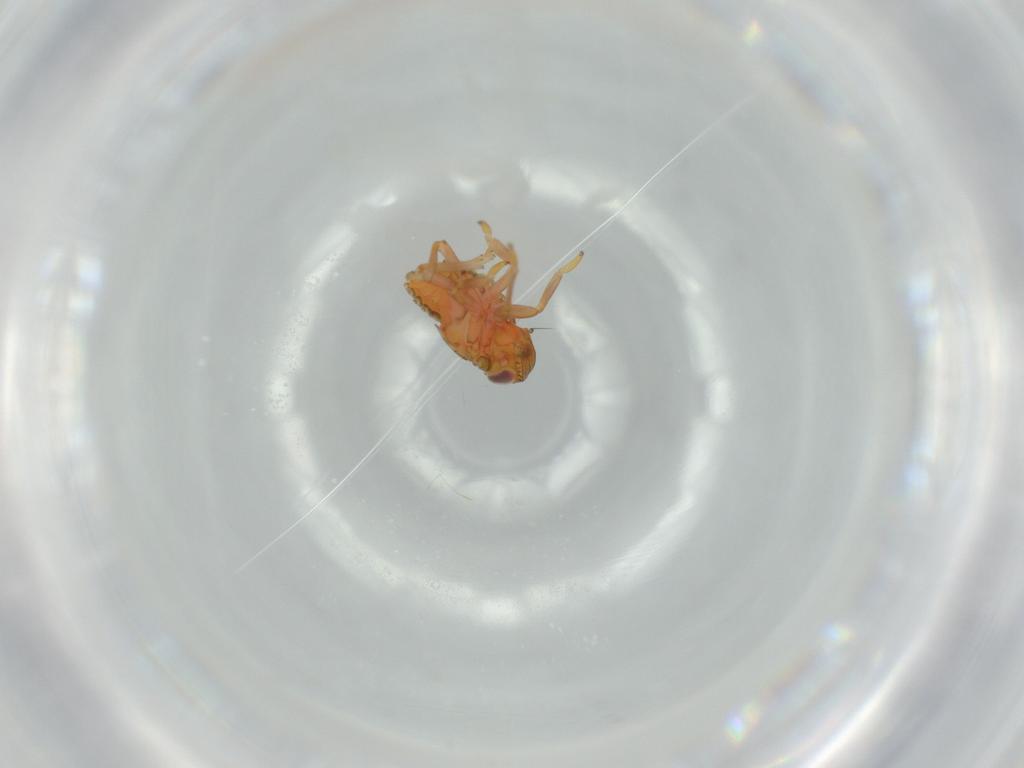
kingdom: Animalia
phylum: Arthropoda
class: Insecta
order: Hemiptera
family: Issidae
